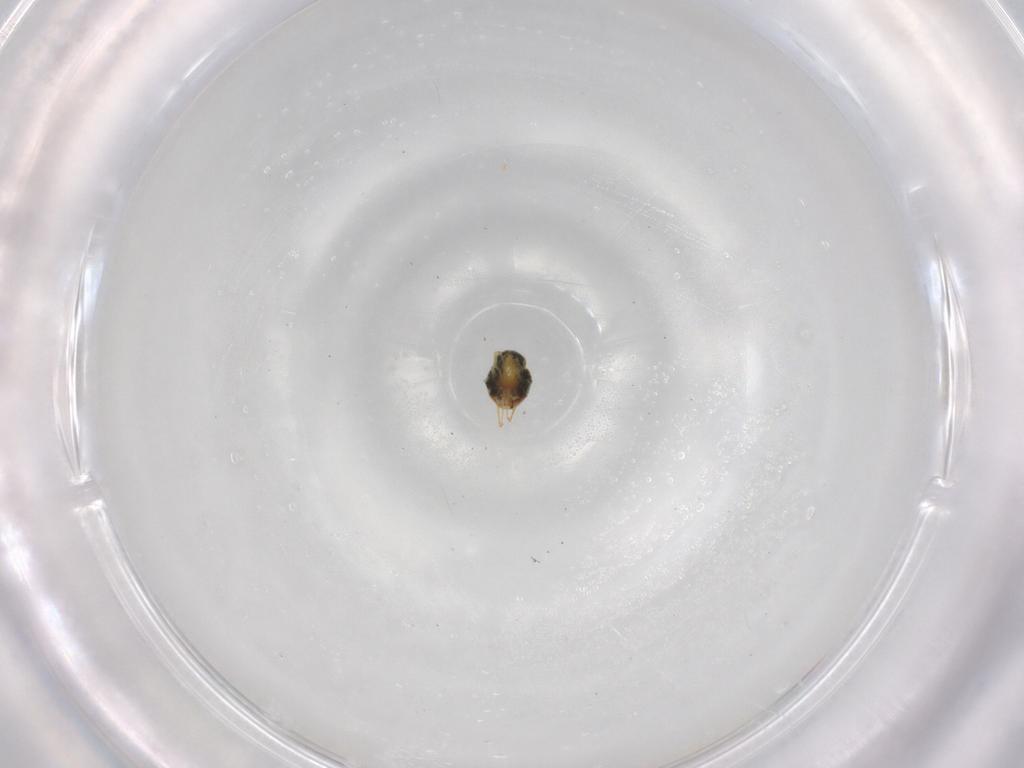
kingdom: Animalia
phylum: Arthropoda
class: Arachnida
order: Trombidiformes
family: Tetranychidae
